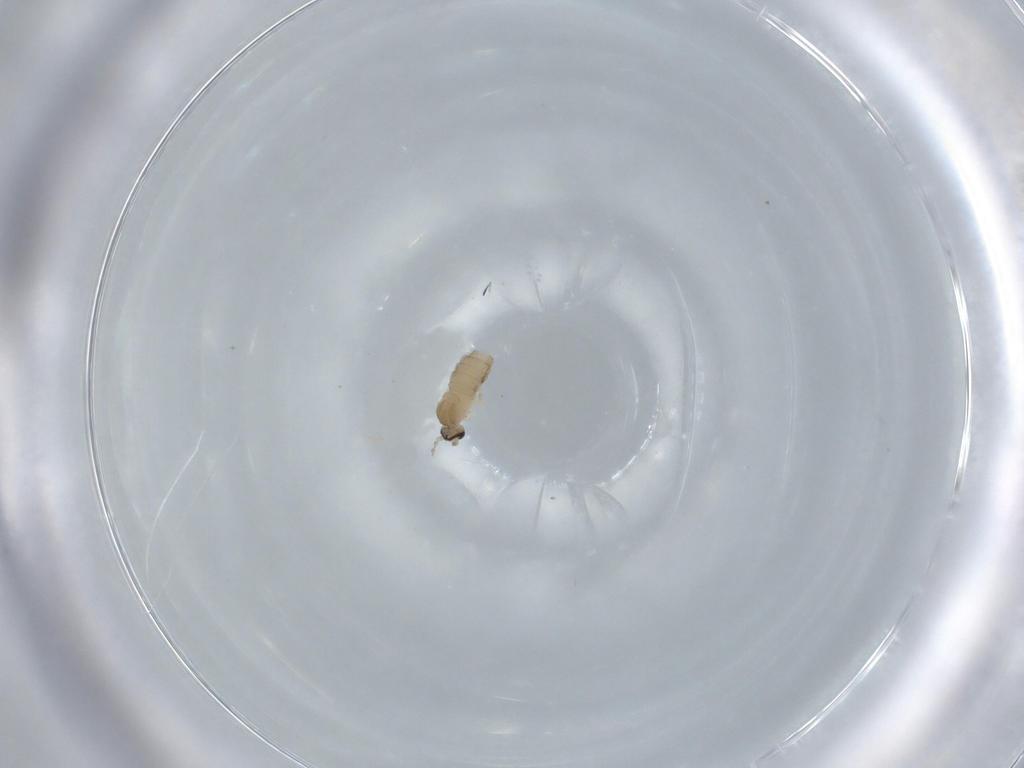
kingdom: Animalia
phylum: Arthropoda
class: Insecta
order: Diptera
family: Cecidomyiidae
